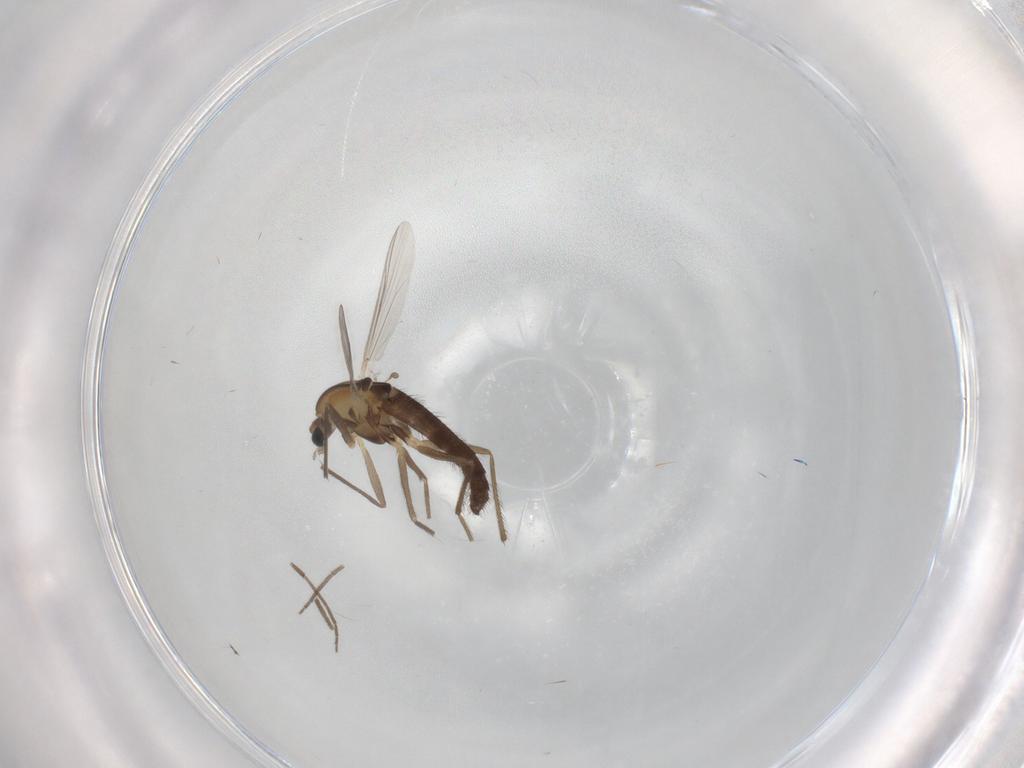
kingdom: Animalia
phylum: Arthropoda
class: Insecta
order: Diptera
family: Chironomidae
